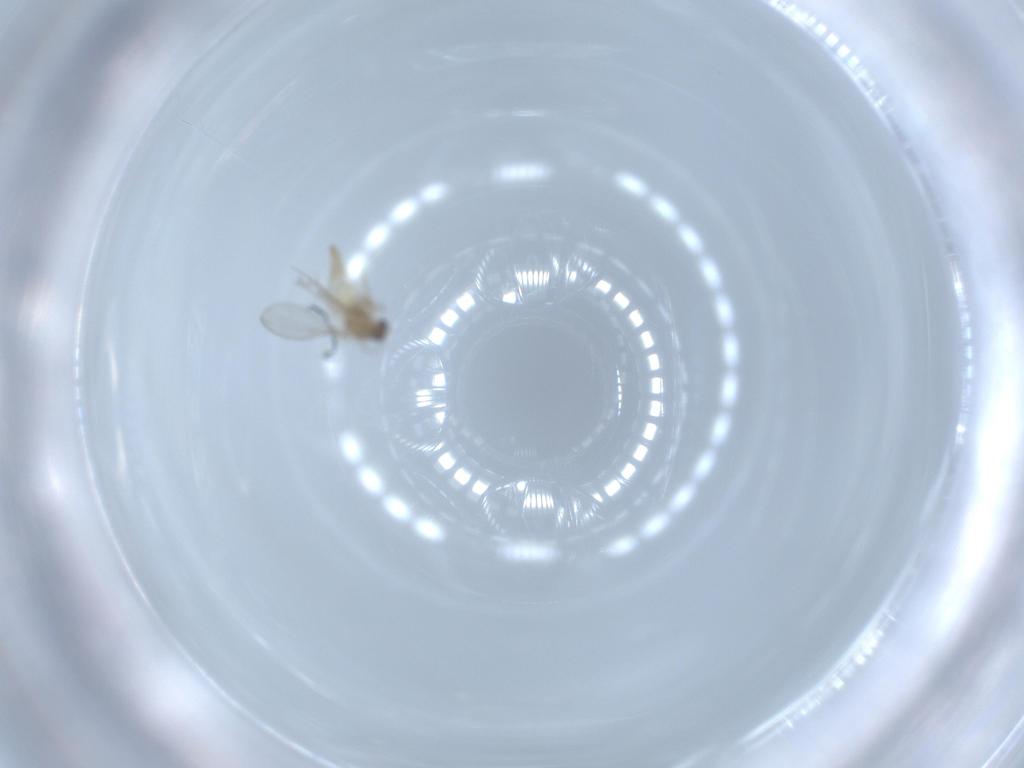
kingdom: Animalia
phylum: Arthropoda
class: Insecta
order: Diptera
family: Cecidomyiidae
